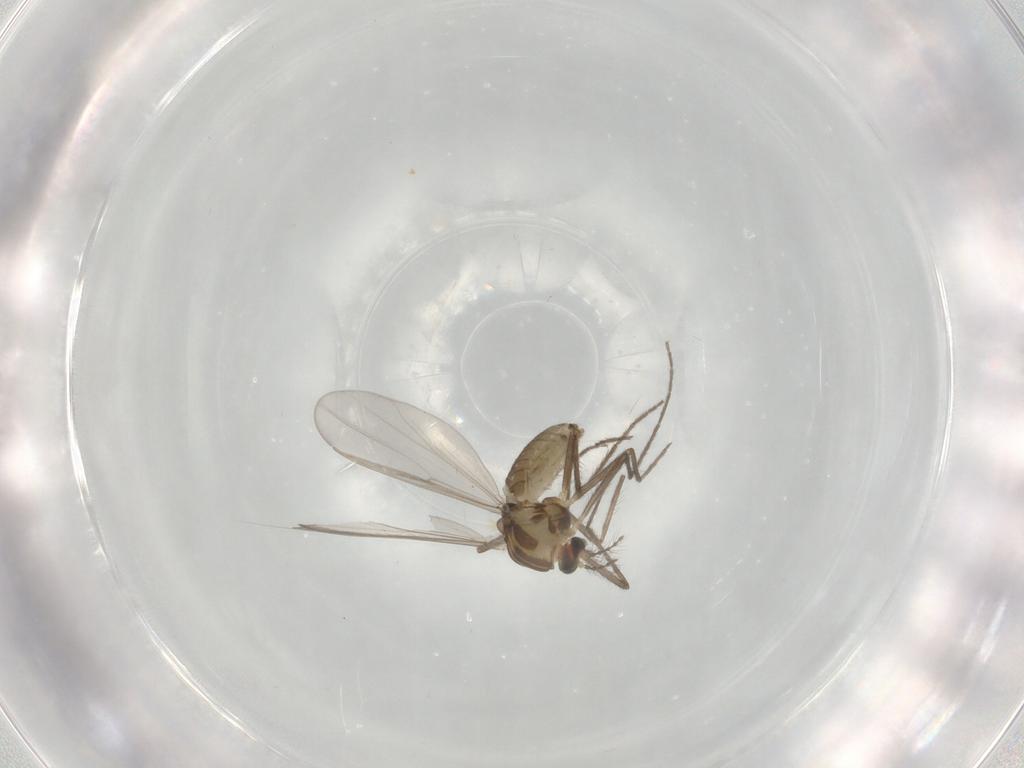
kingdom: Animalia
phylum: Arthropoda
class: Insecta
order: Diptera
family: Chironomidae
